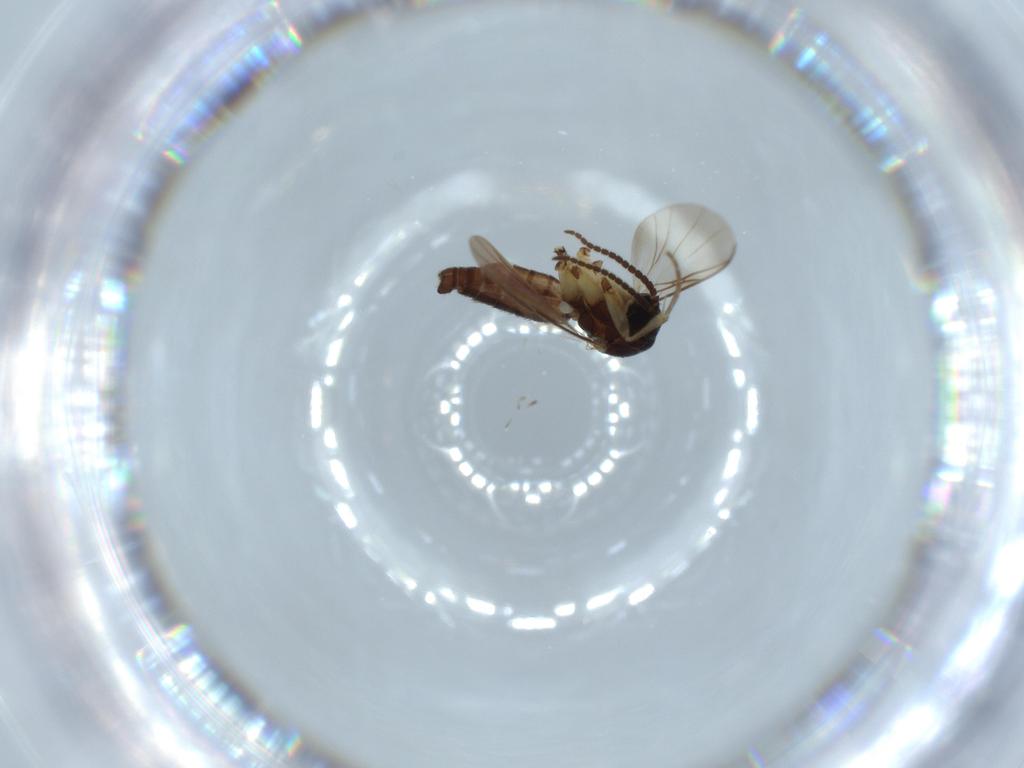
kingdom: Animalia
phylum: Arthropoda
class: Insecta
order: Diptera
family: Mycetophilidae
